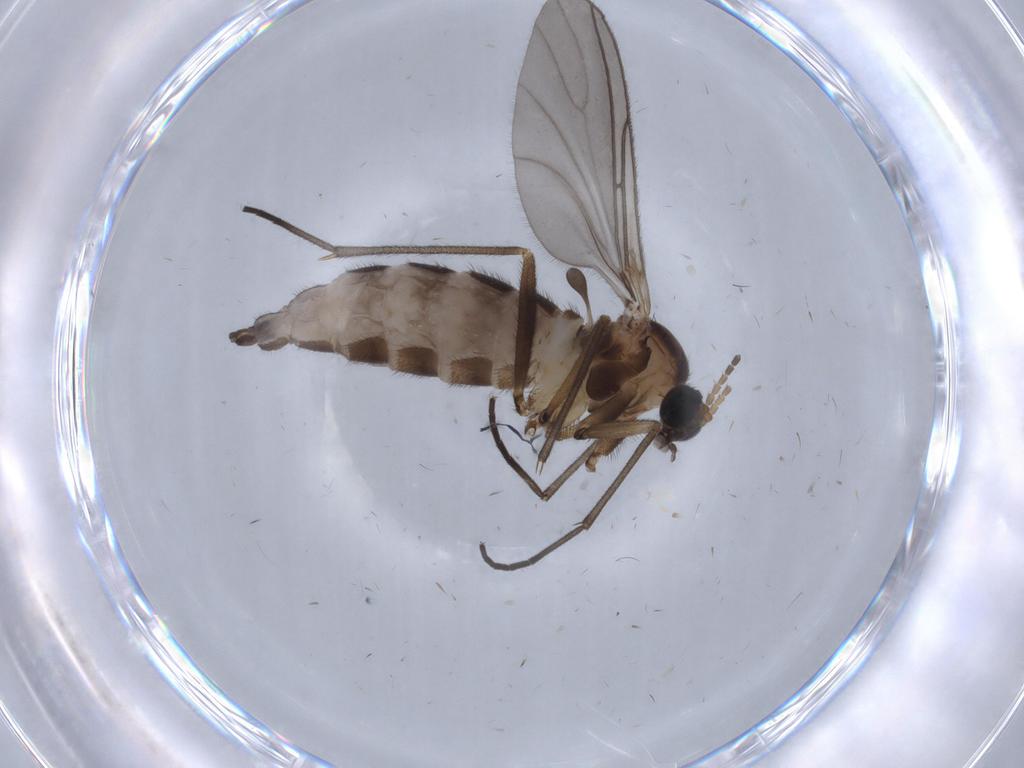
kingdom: Animalia
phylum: Arthropoda
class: Insecta
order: Diptera
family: Sciaridae
